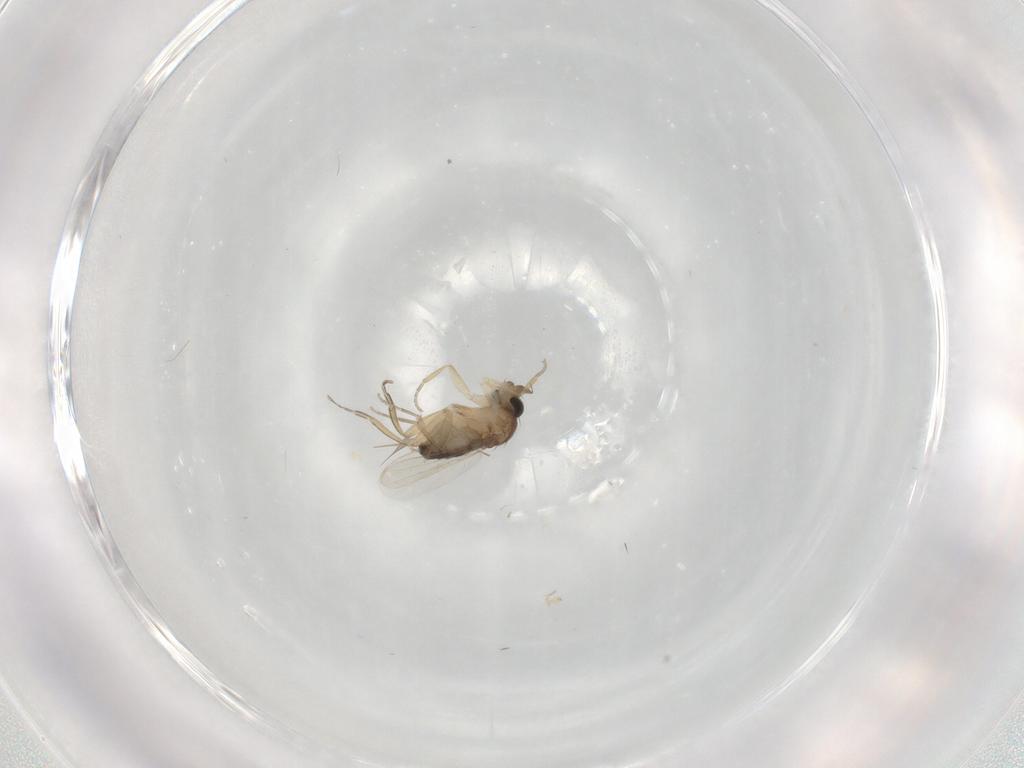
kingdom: Animalia
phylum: Arthropoda
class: Insecta
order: Diptera
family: Phoridae
